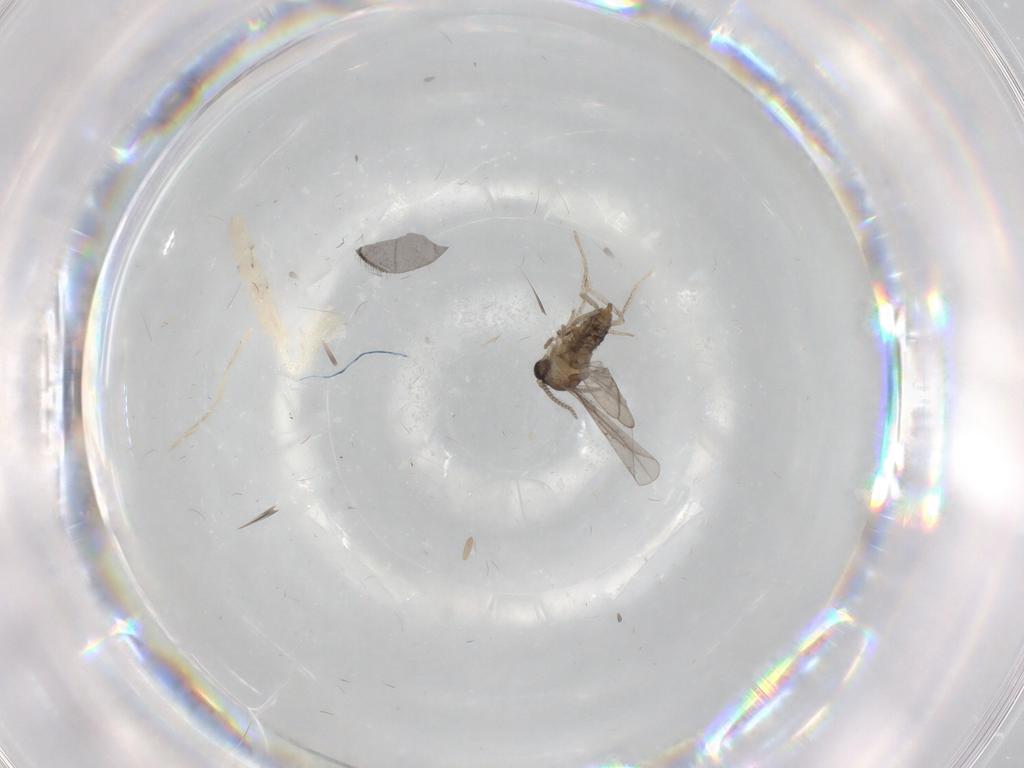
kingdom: Animalia
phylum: Arthropoda
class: Insecta
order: Diptera
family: Cecidomyiidae
